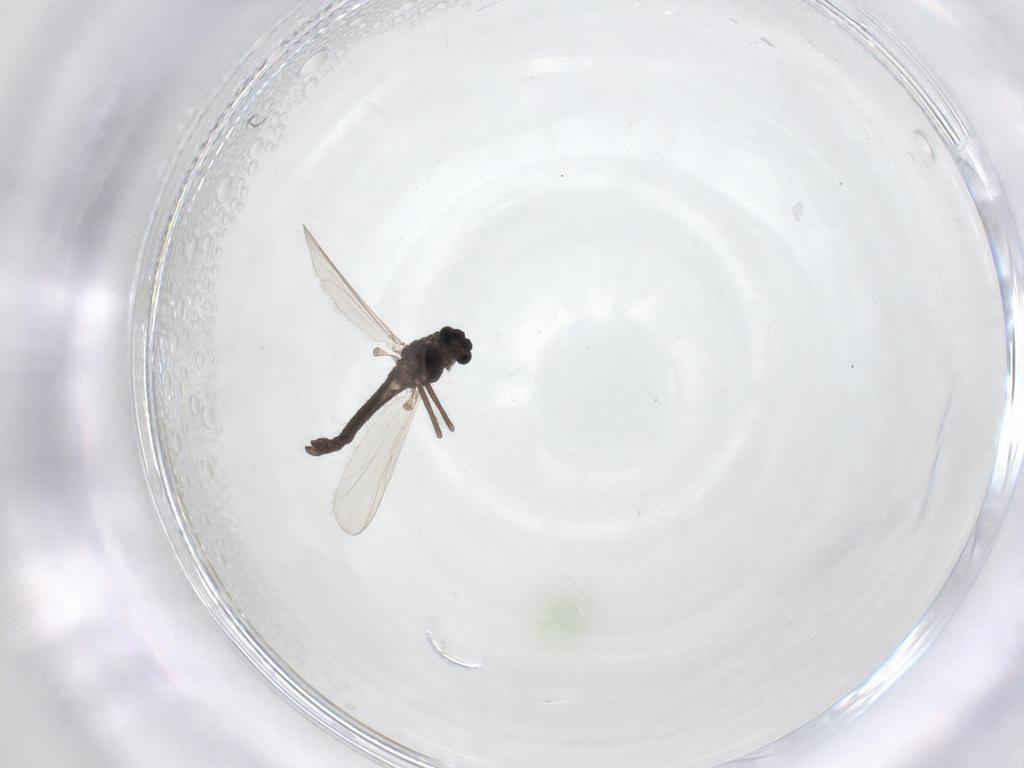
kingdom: Animalia
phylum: Arthropoda
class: Insecta
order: Diptera
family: Chironomidae
